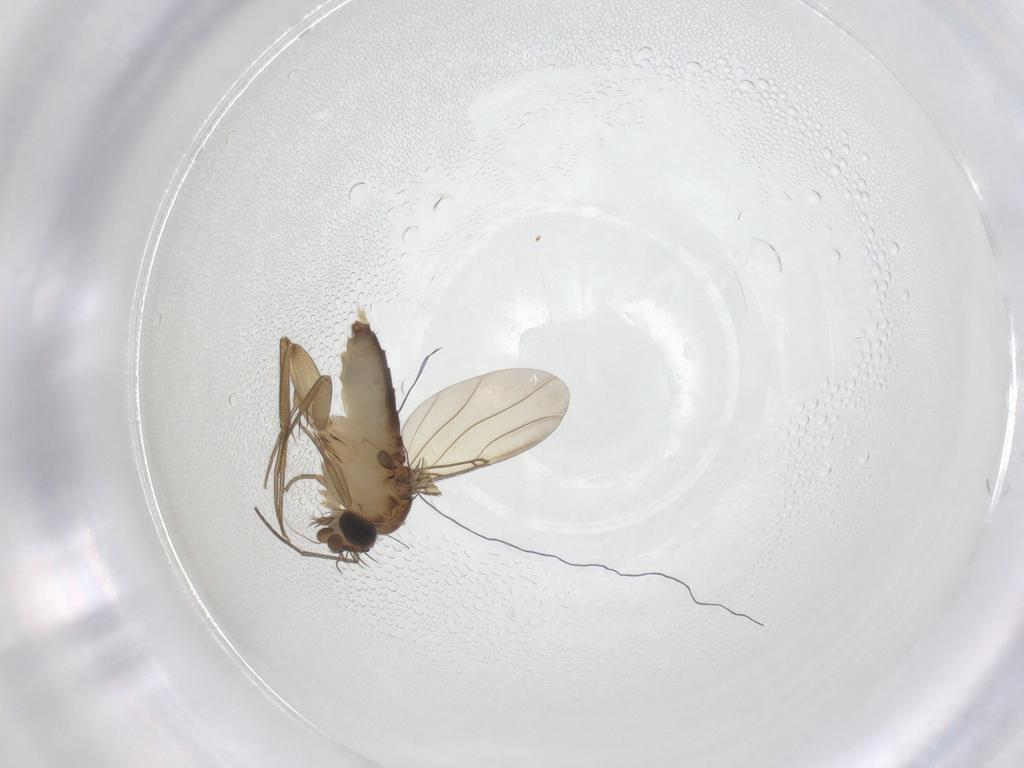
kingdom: Animalia
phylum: Arthropoda
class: Insecta
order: Diptera
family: Phoridae
